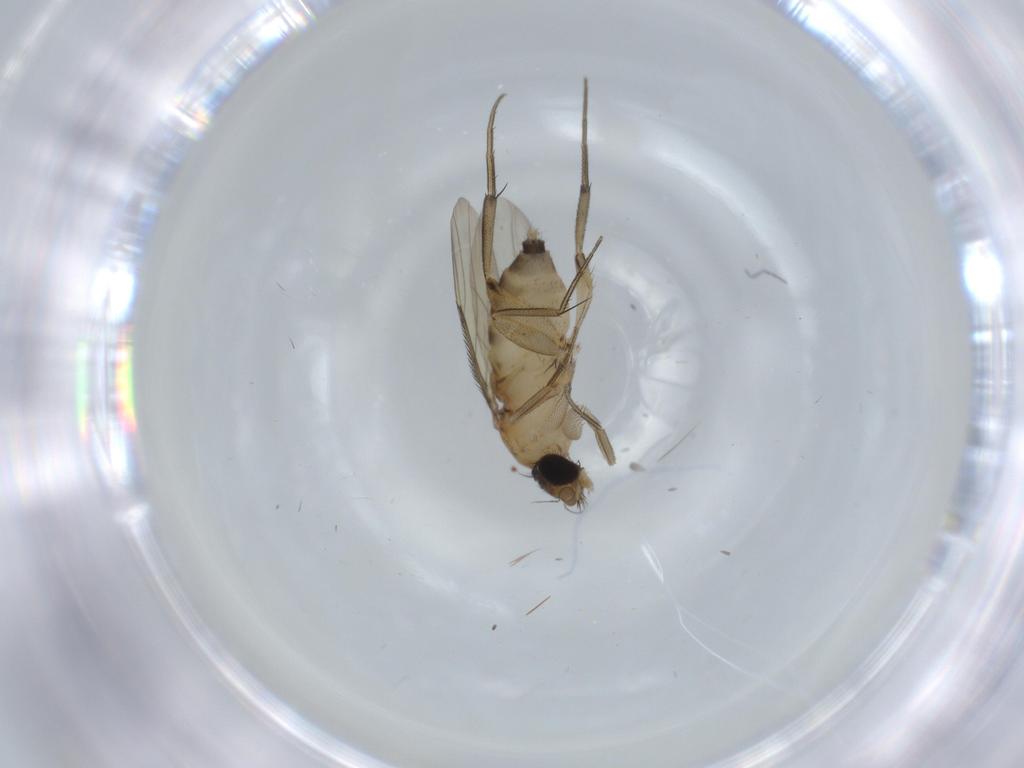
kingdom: Animalia
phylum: Arthropoda
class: Insecta
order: Diptera
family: Phoridae
